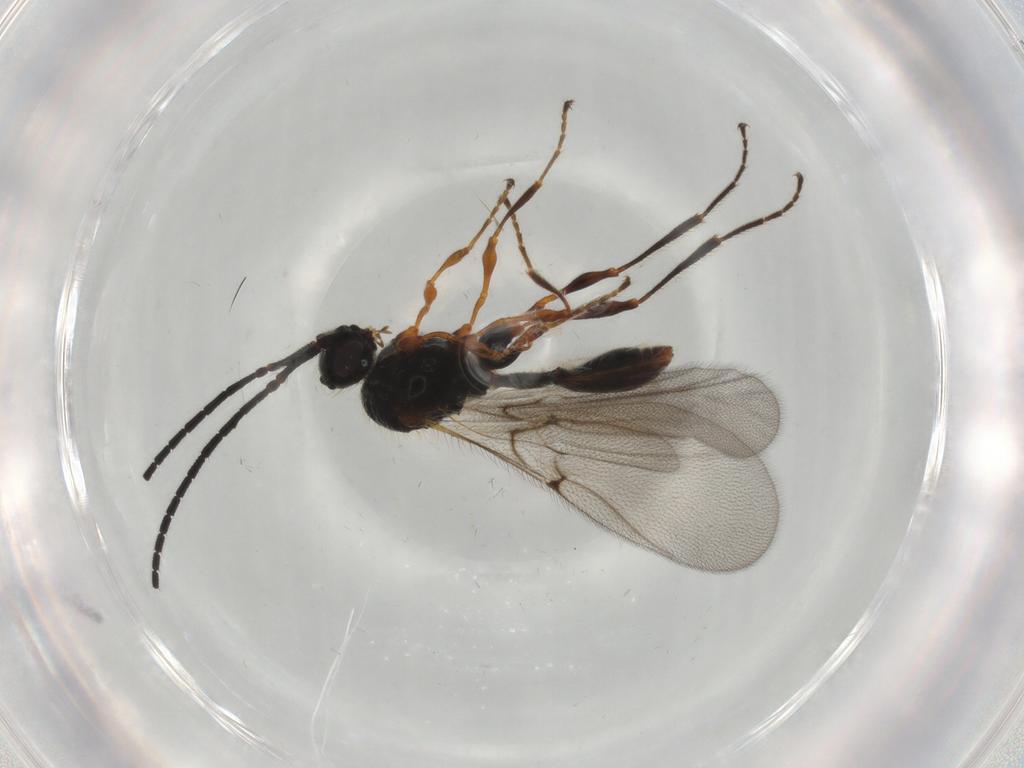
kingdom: Animalia
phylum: Arthropoda
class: Insecta
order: Hymenoptera
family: Diapriidae
